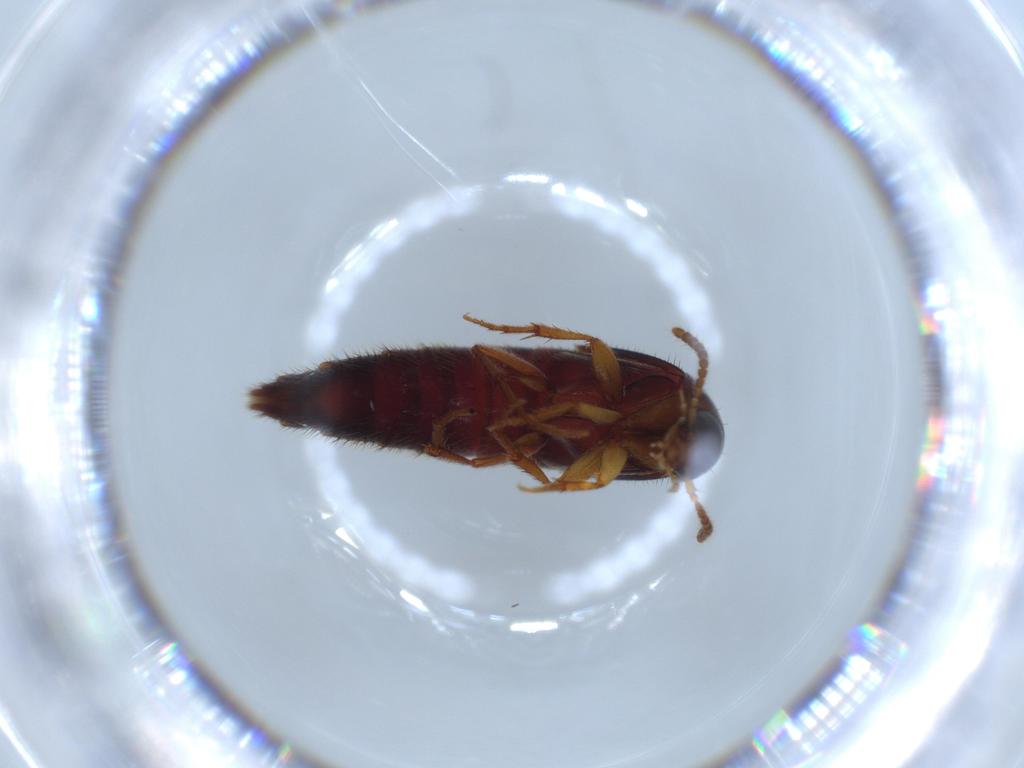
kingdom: Animalia
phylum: Arthropoda
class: Insecta
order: Coleoptera
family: Staphylinidae
